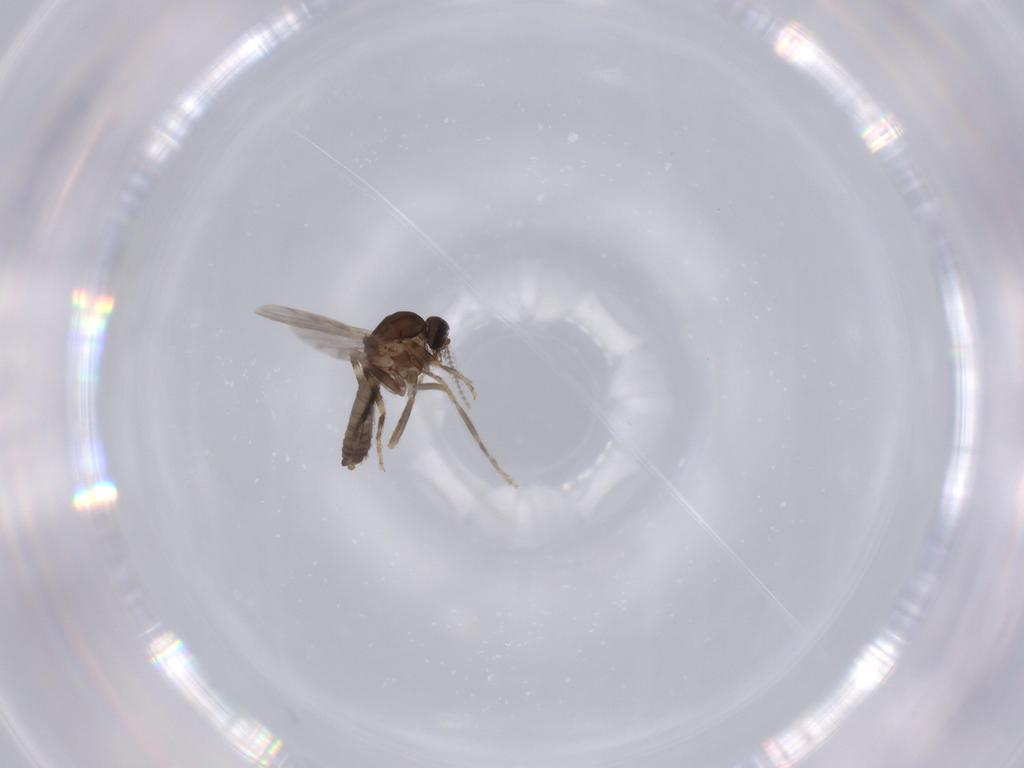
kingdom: Animalia
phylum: Arthropoda
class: Insecta
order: Diptera
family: Ceratopogonidae
